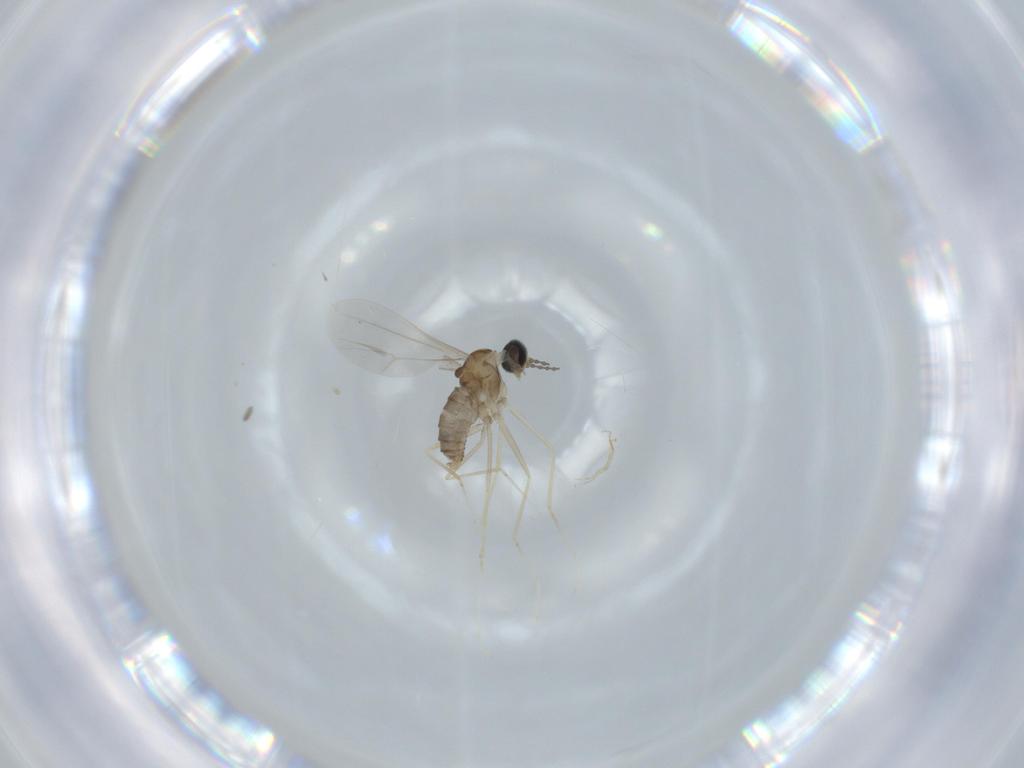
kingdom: Animalia
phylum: Arthropoda
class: Insecta
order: Diptera
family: Cecidomyiidae
